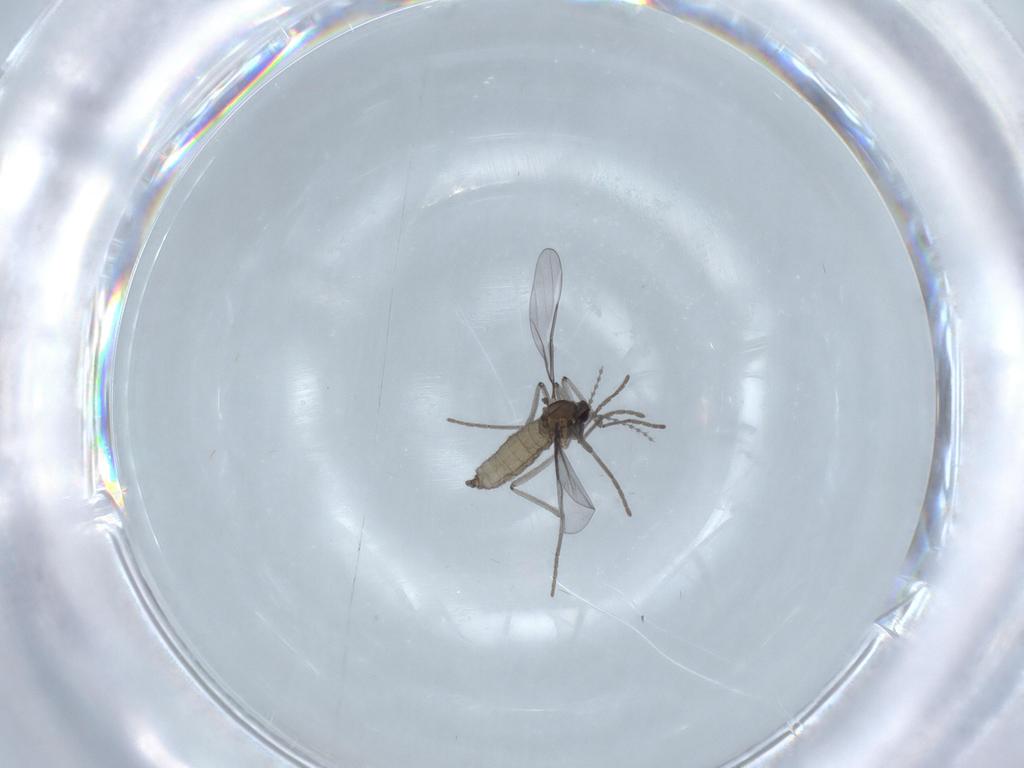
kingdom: Animalia
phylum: Arthropoda
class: Insecta
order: Diptera
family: Cecidomyiidae
